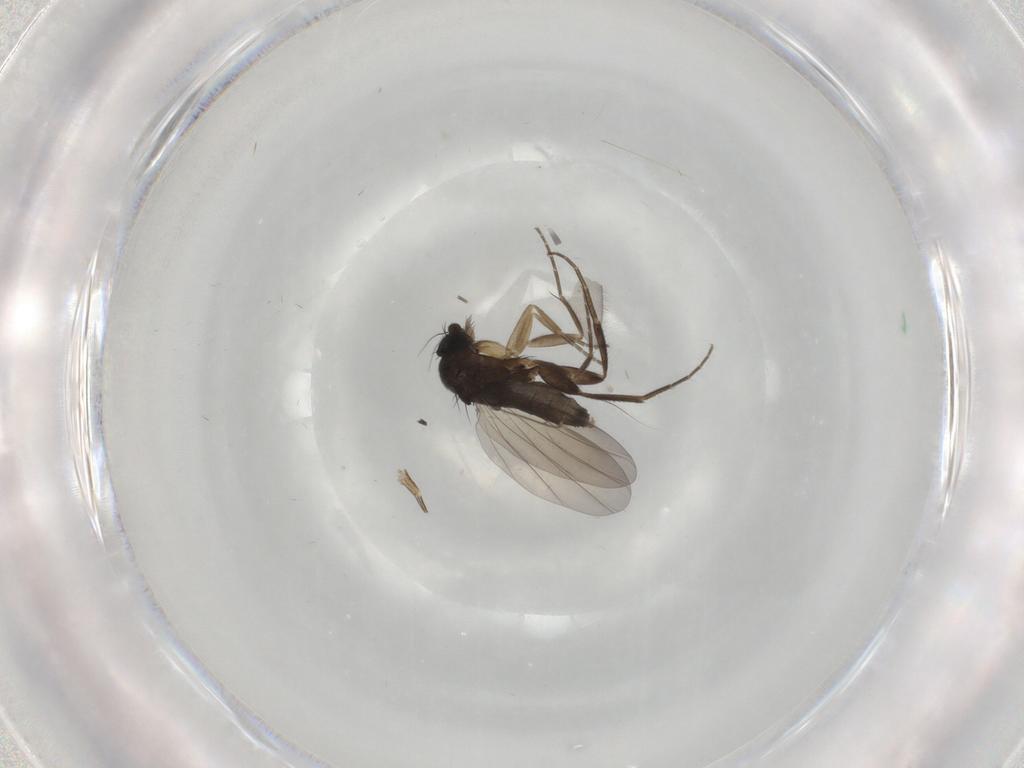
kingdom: Animalia
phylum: Arthropoda
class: Insecta
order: Diptera
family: Phoridae
